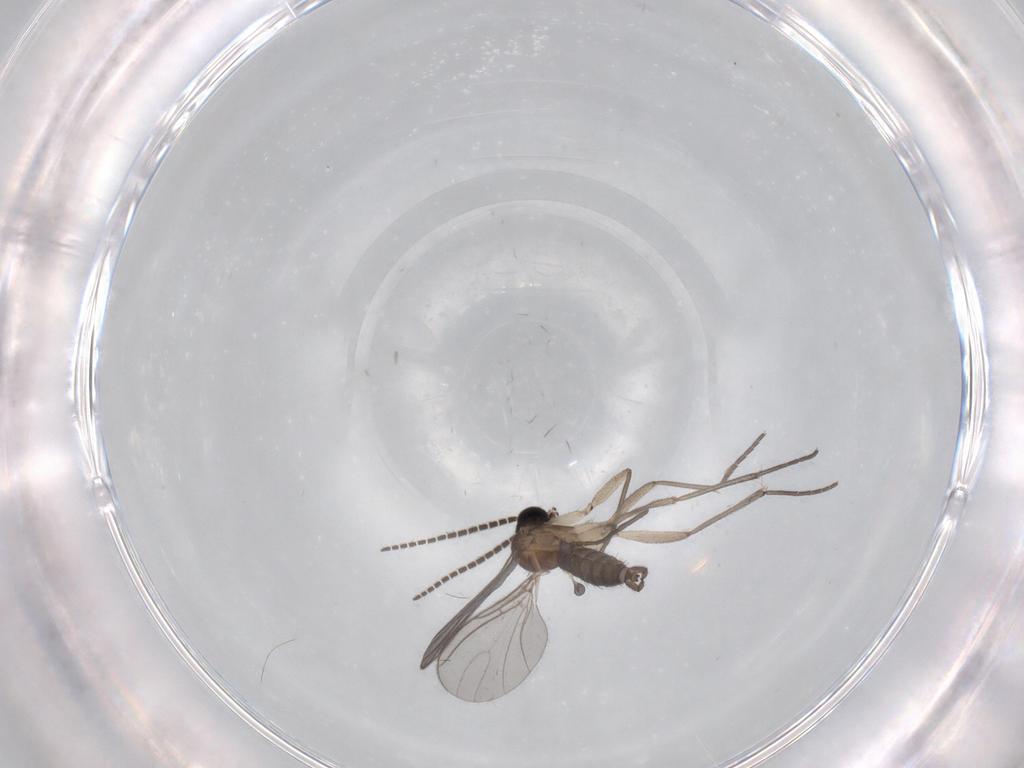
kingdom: Animalia
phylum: Arthropoda
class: Insecta
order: Diptera
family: Sciaridae
